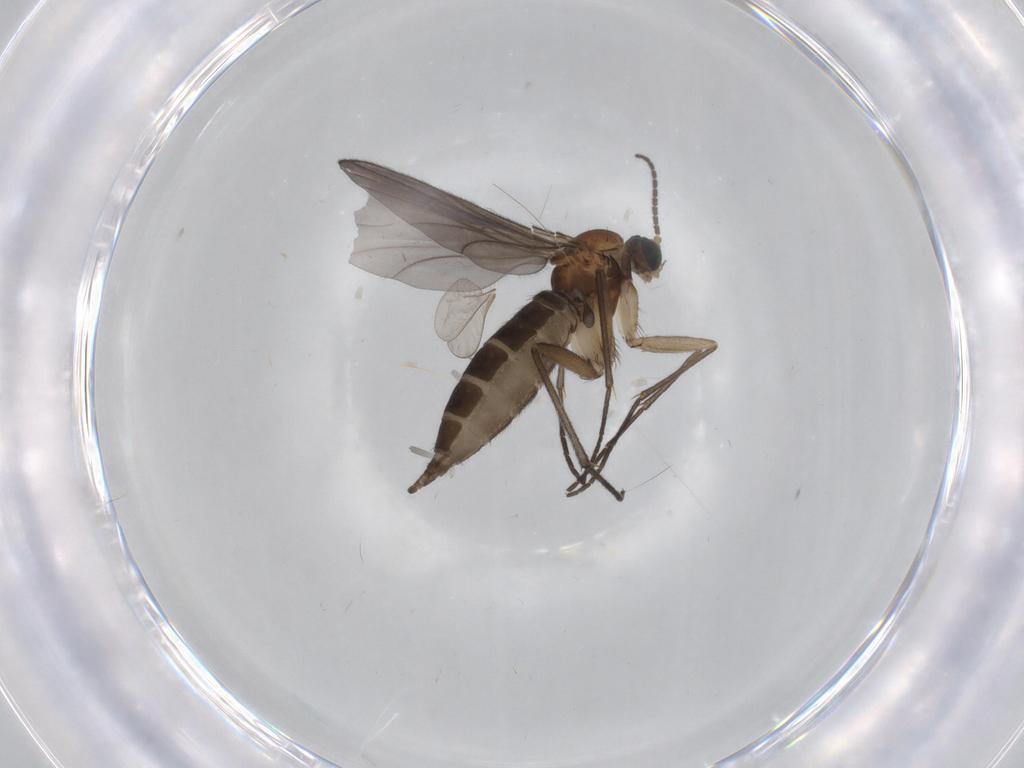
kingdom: Animalia
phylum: Arthropoda
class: Insecta
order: Diptera
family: Sciaridae
